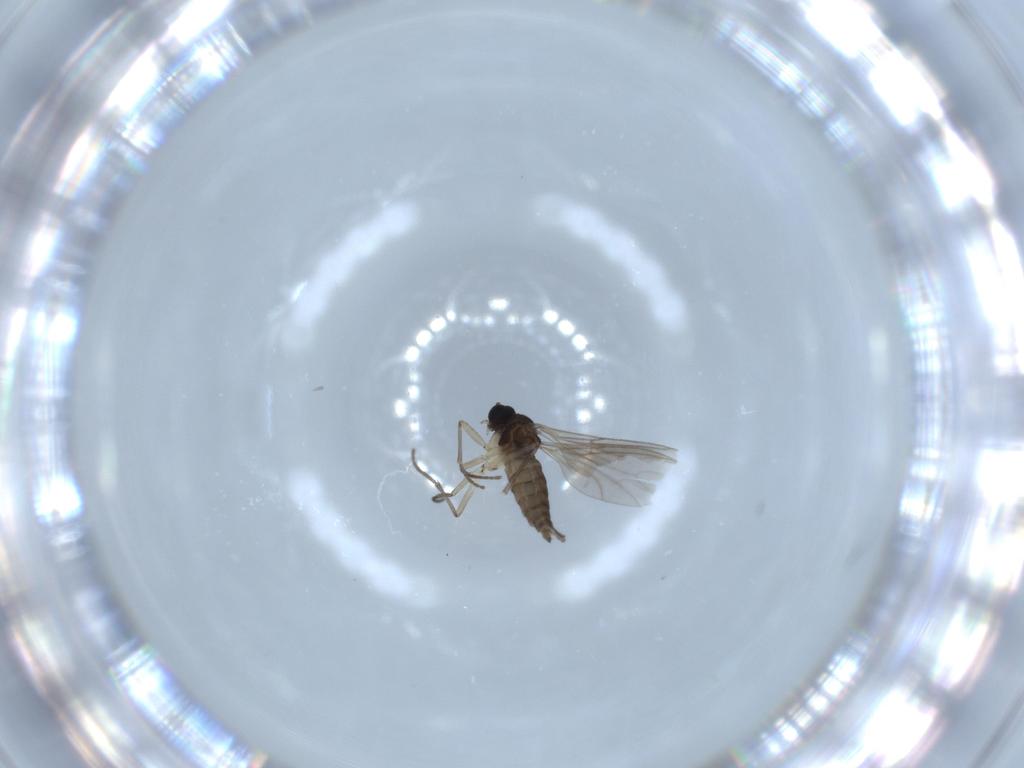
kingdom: Animalia
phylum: Arthropoda
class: Insecta
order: Diptera
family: Sciaridae
